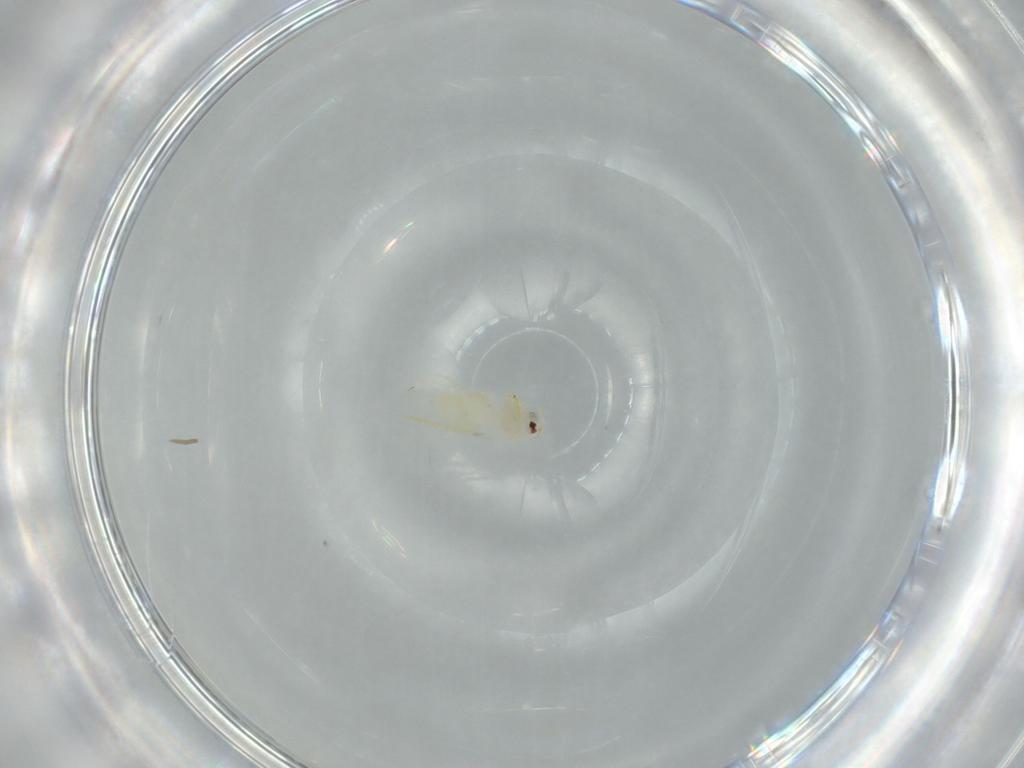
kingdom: Animalia
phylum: Arthropoda
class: Insecta
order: Hemiptera
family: Aleyrodidae
